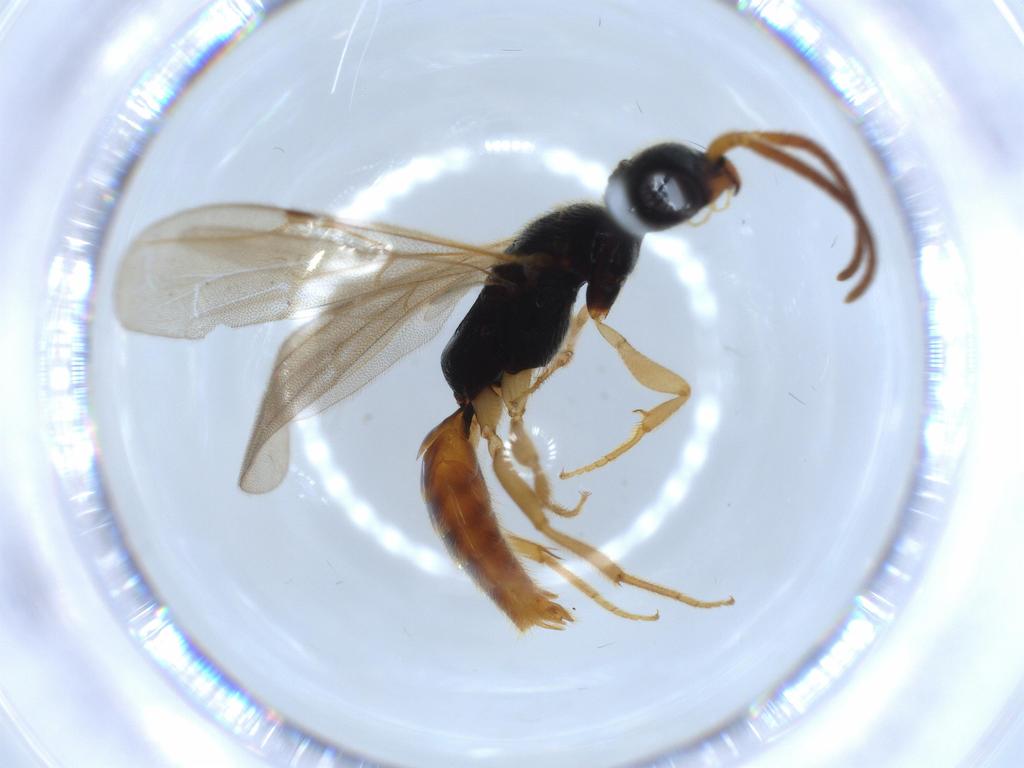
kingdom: Animalia
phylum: Arthropoda
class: Insecta
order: Hymenoptera
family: Bethylidae
